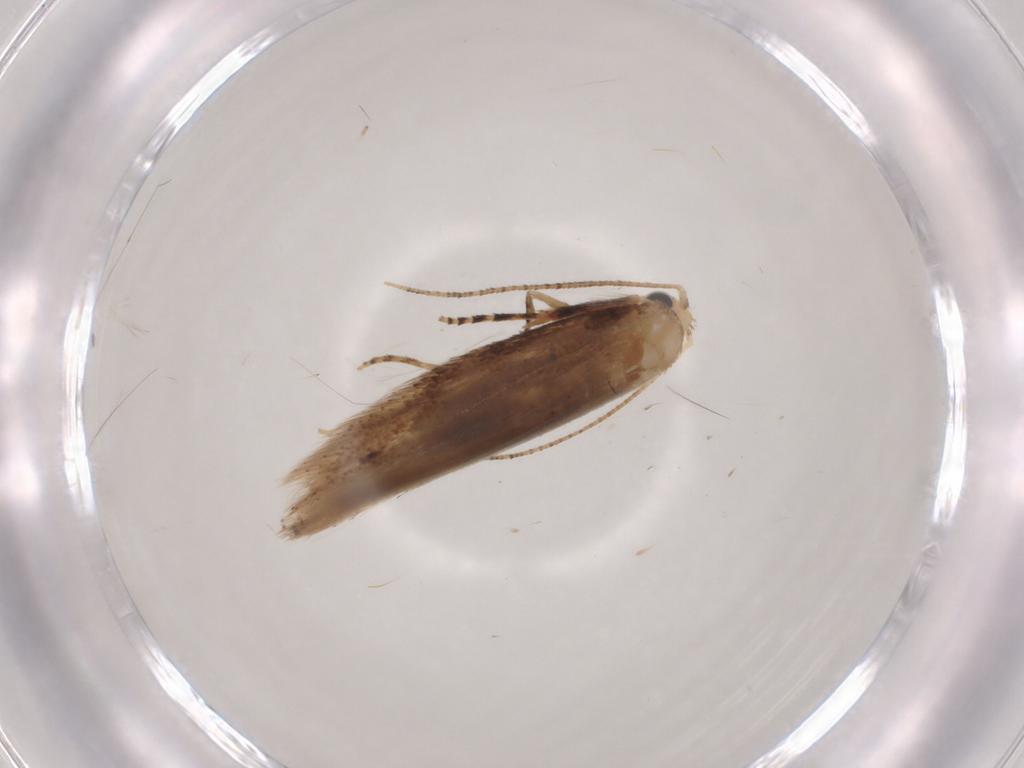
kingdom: Animalia
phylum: Arthropoda
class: Insecta
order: Lepidoptera
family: Bucculatricidae
